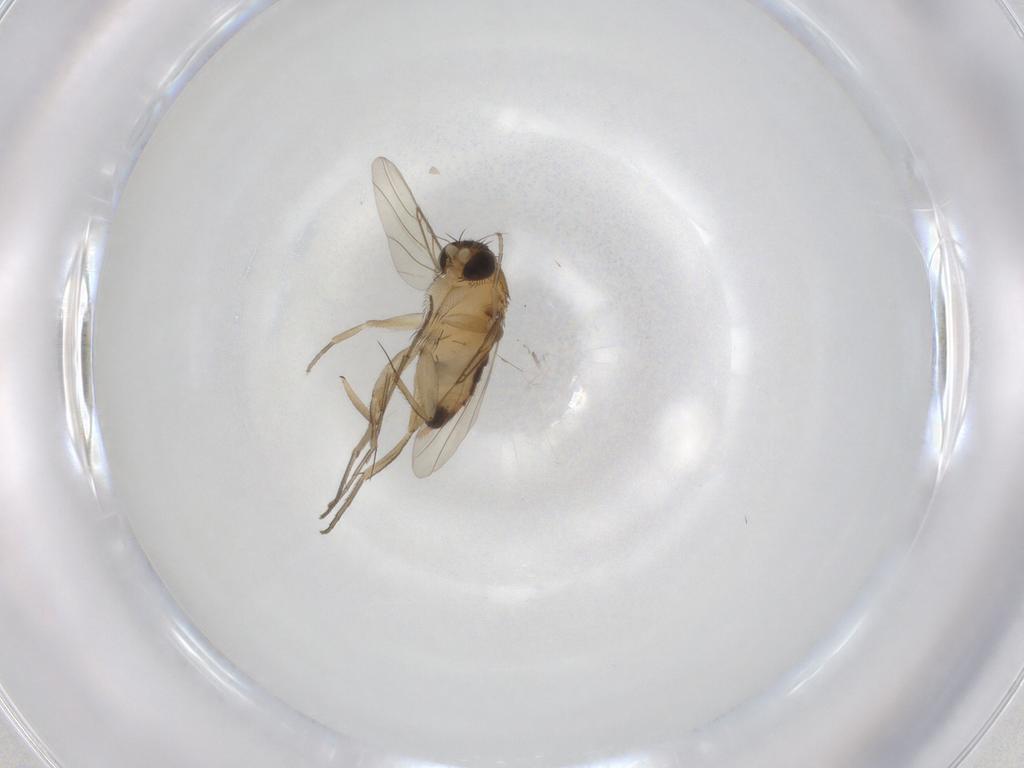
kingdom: Animalia
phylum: Arthropoda
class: Insecta
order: Diptera
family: Phoridae
